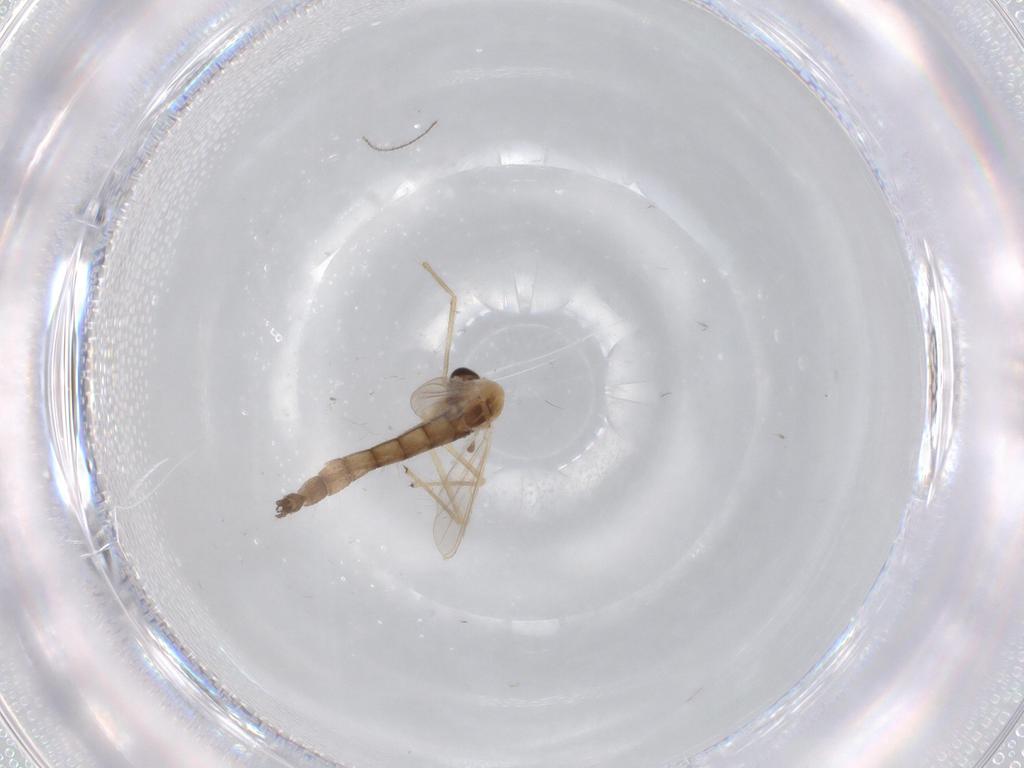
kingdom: Animalia
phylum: Arthropoda
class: Insecta
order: Diptera
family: Chironomidae
